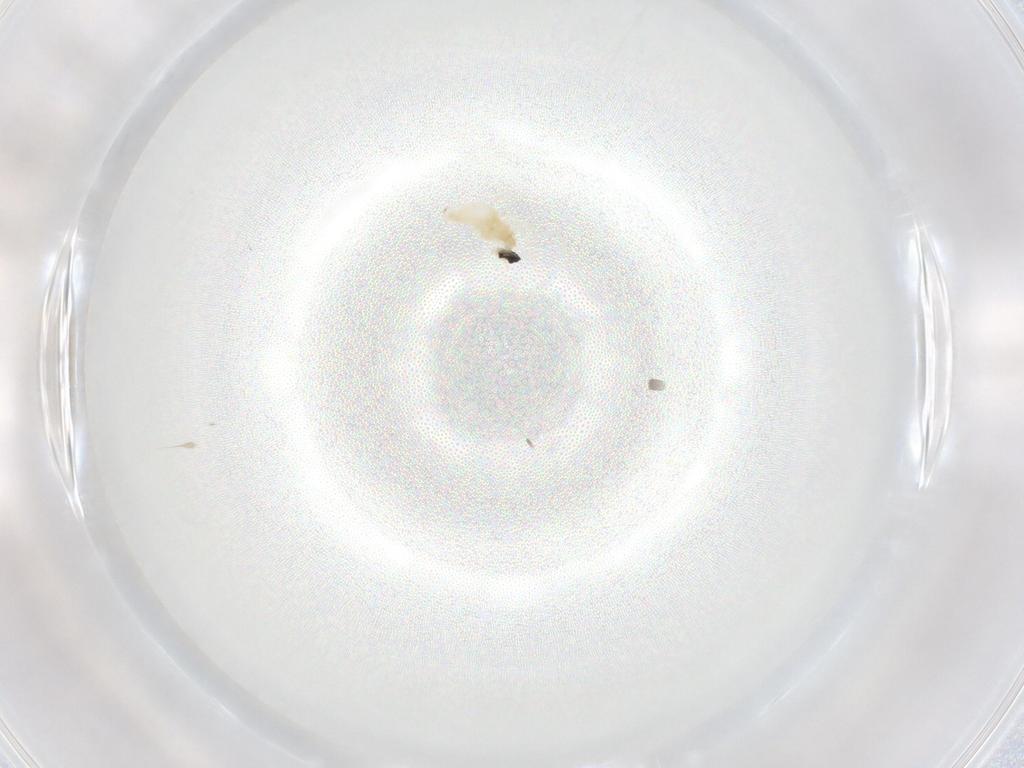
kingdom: Animalia
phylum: Arthropoda
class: Insecta
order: Diptera
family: Cecidomyiidae
